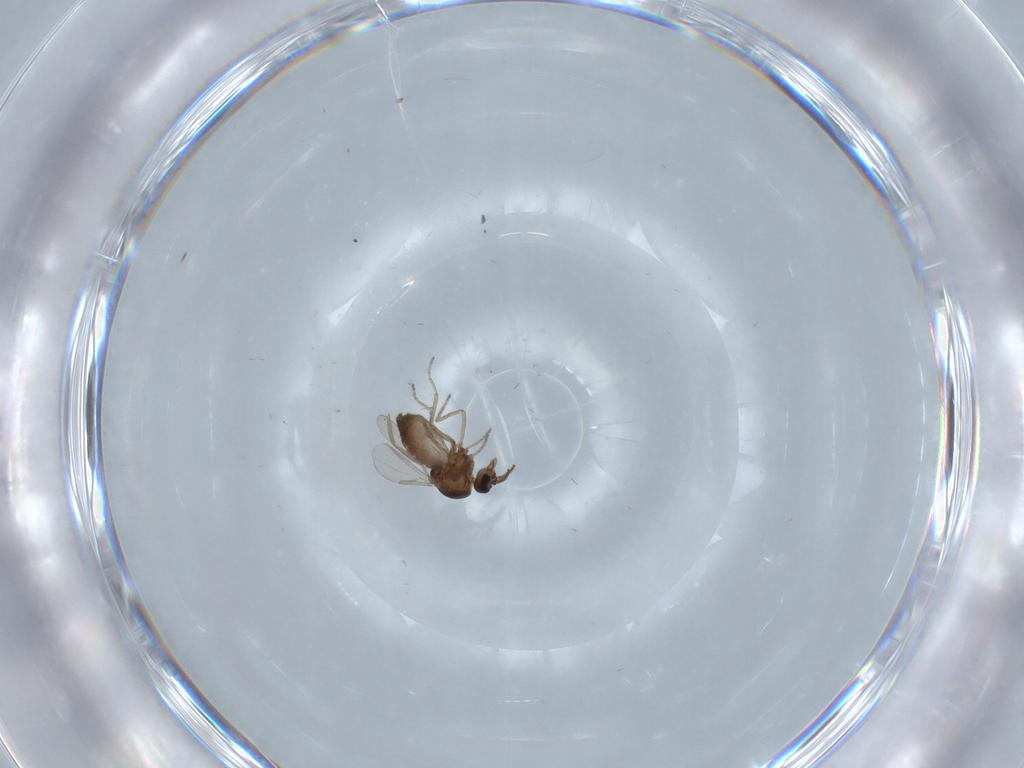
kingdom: Animalia
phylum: Arthropoda
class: Insecta
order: Diptera
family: Ceratopogonidae
